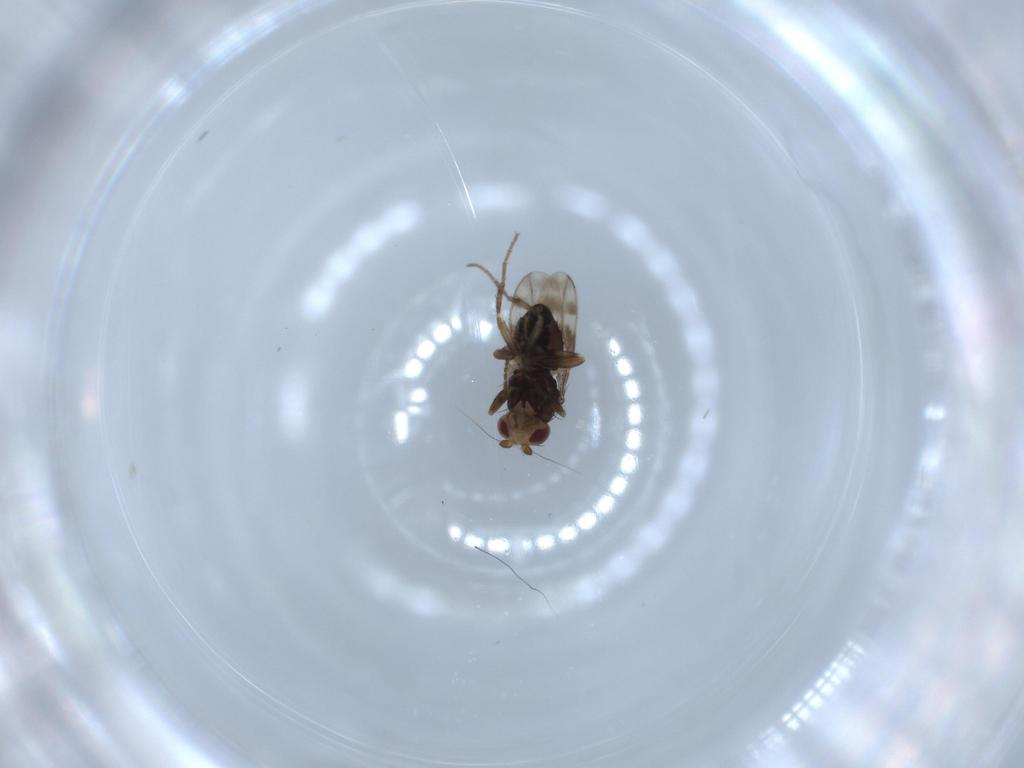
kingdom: Animalia
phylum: Arthropoda
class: Insecta
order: Diptera
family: Sphaeroceridae
